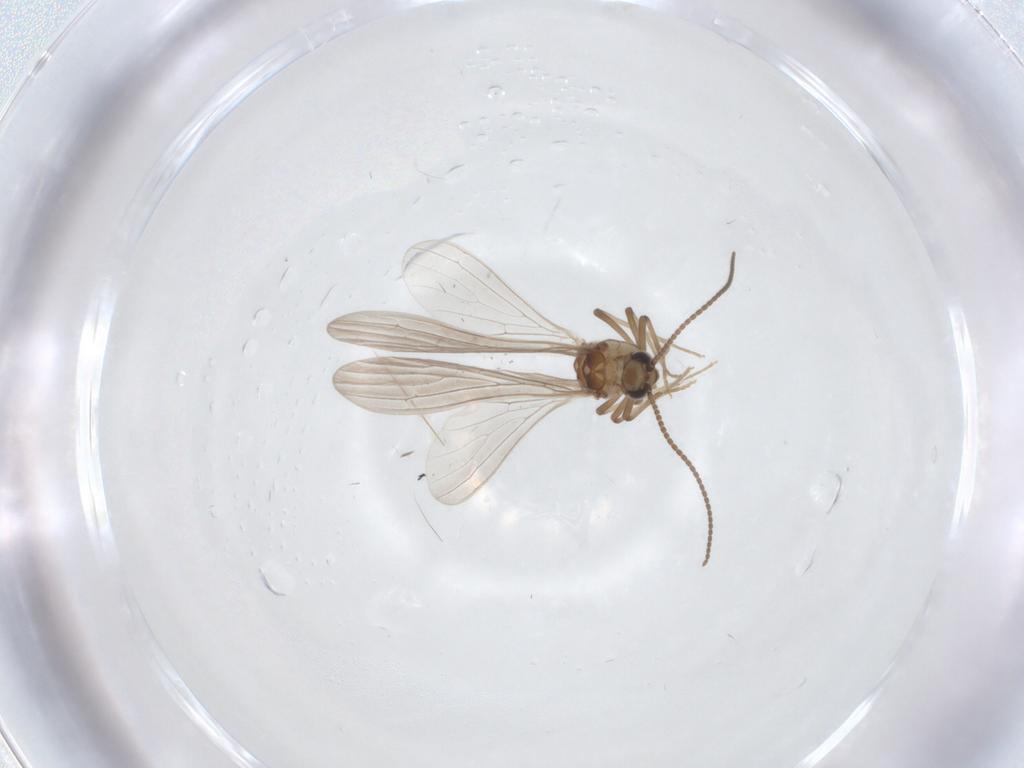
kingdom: Animalia
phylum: Arthropoda
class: Insecta
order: Neuroptera
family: Coniopterygidae
